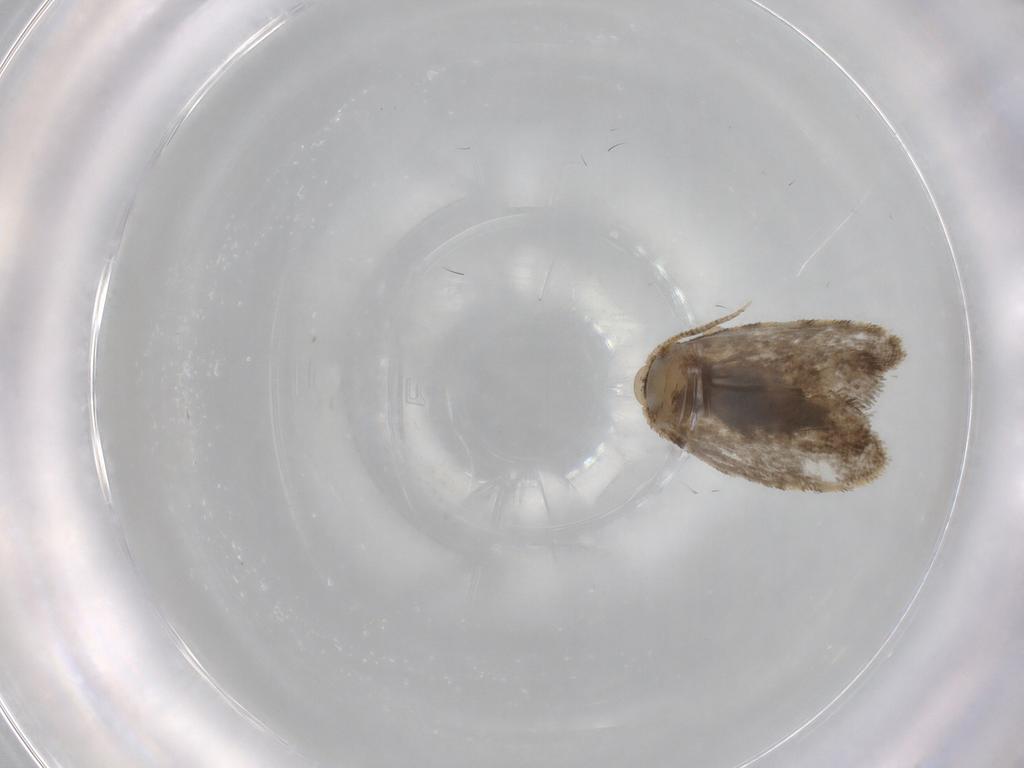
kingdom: Animalia
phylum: Arthropoda
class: Insecta
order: Lepidoptera
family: Psychidae
